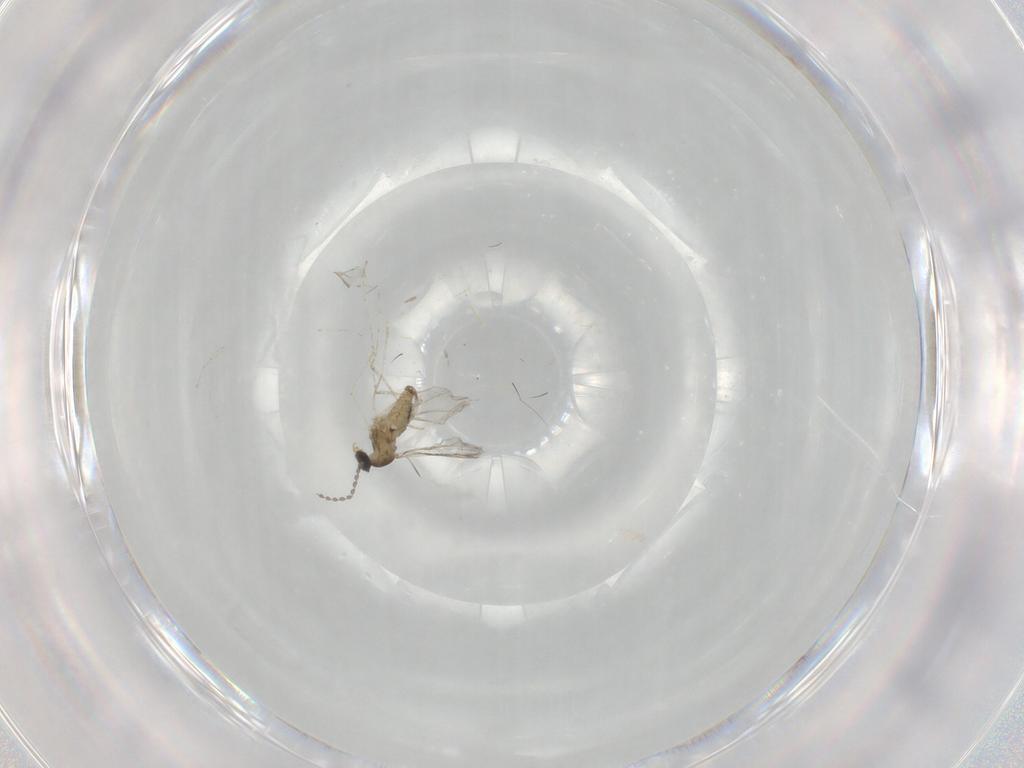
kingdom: Animalia
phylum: Arthropoda
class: Insecta
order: Diptera
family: Cecidomyiidae
